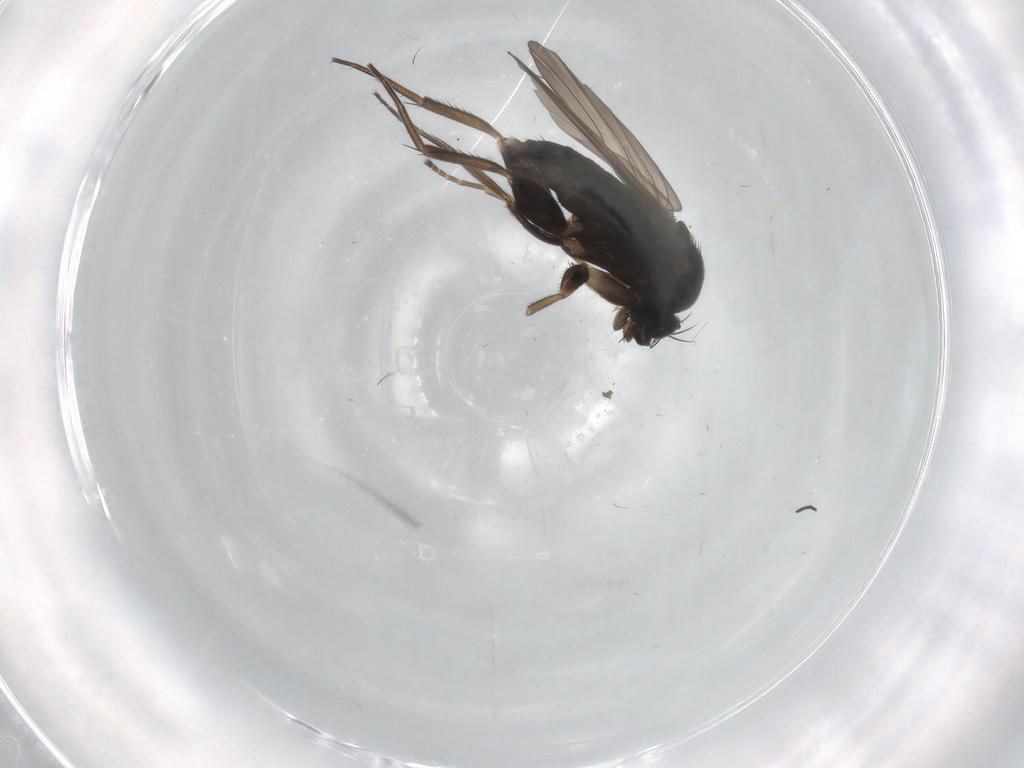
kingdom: Animalia
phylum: Arthropoda
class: Insecta
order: Diptera
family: Phoridae
